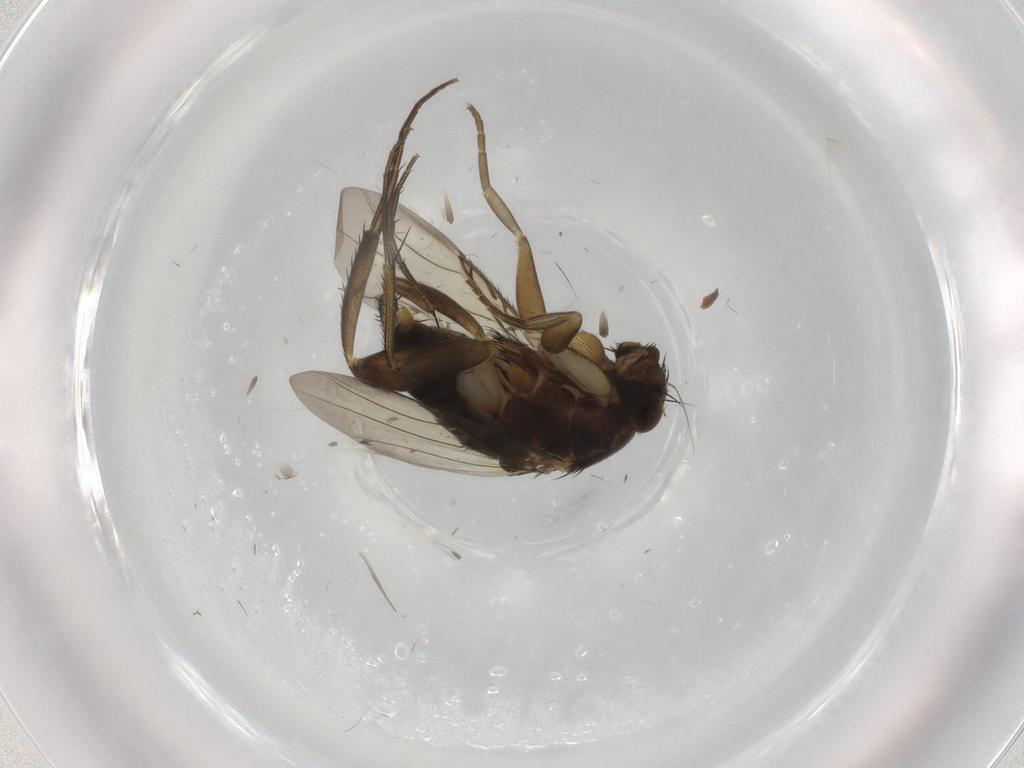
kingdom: Animalia
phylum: Arthropoda
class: Insecta
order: Diptera
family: Phoridae
